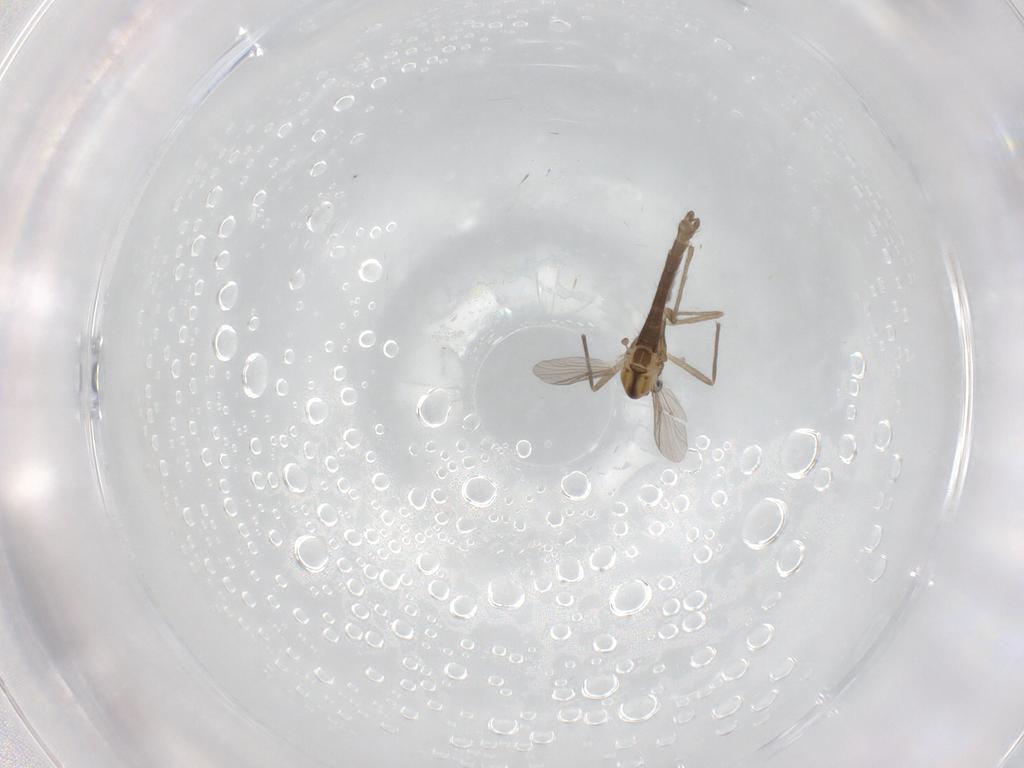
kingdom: Animalia
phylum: Arthropoda
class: Insecta
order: Diptera
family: Chironomidae
